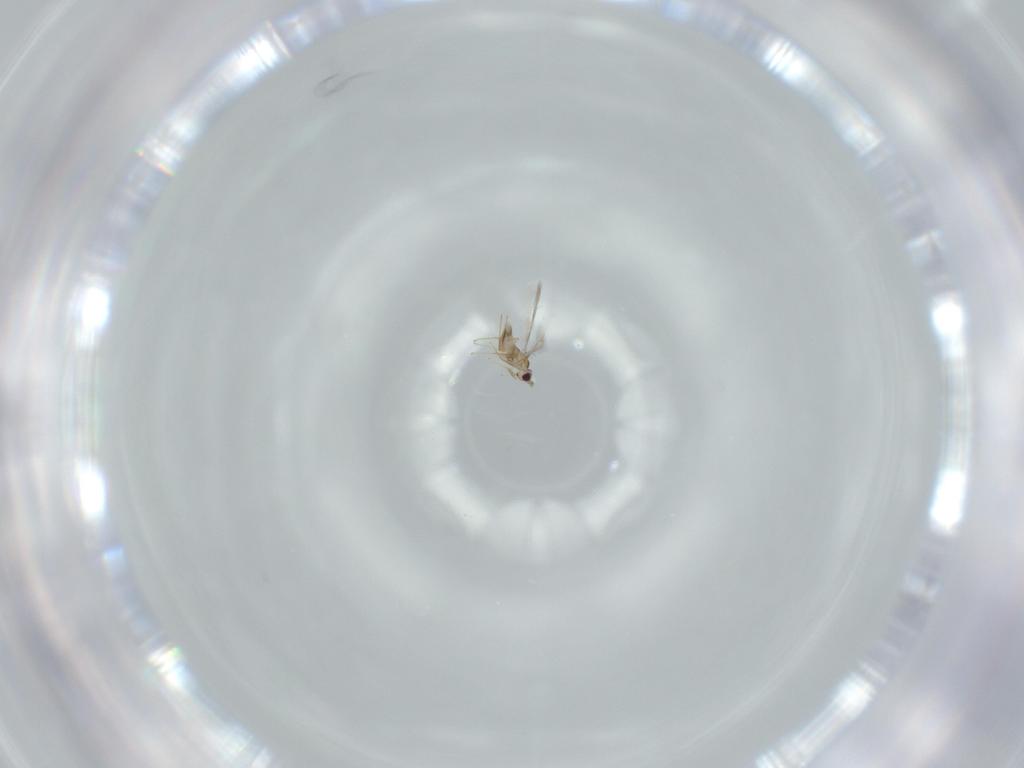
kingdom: Animalia
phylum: Arthropoda
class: Insecta
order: Hymenoptera
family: Mymaridae
